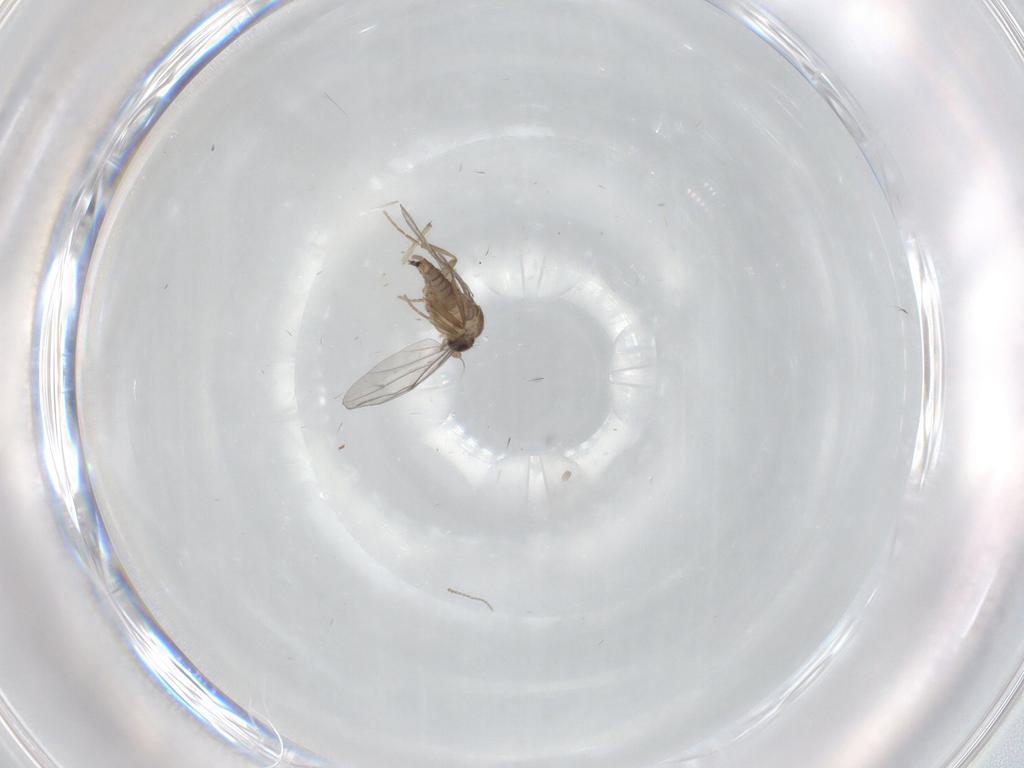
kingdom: Animalia
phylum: Arthropoda
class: Insecta
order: Diptera
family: Ceratopogonidae
